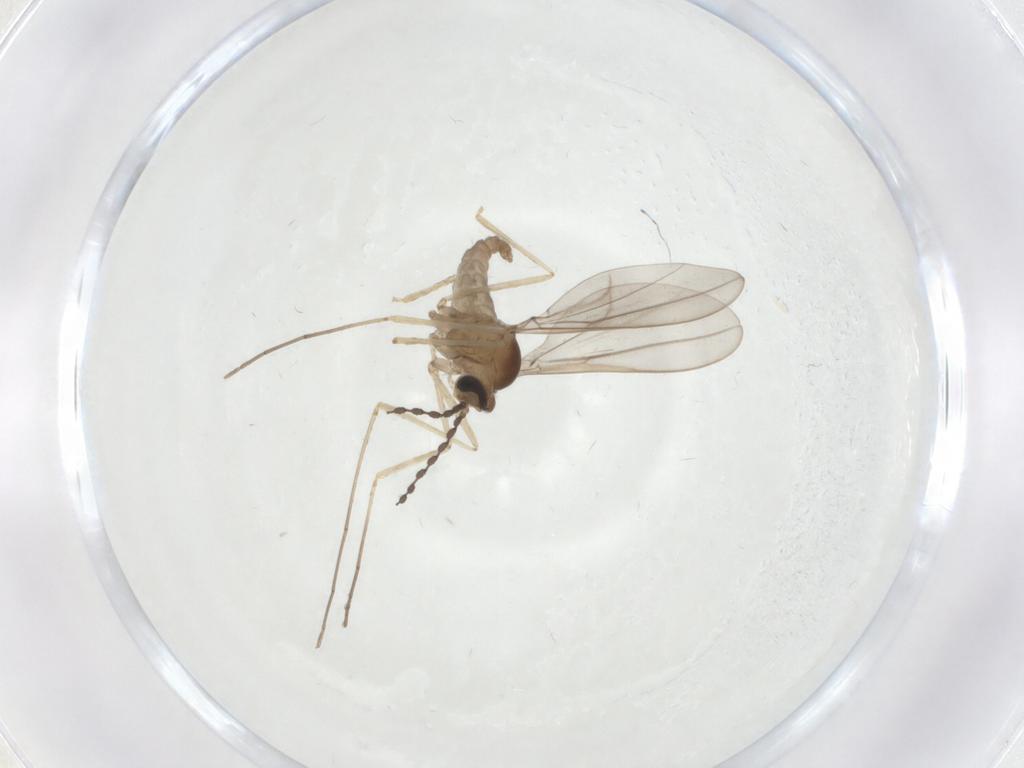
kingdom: Animalia
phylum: Arthropoda
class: Insecta
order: Diptera
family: Cecidomyiidae
